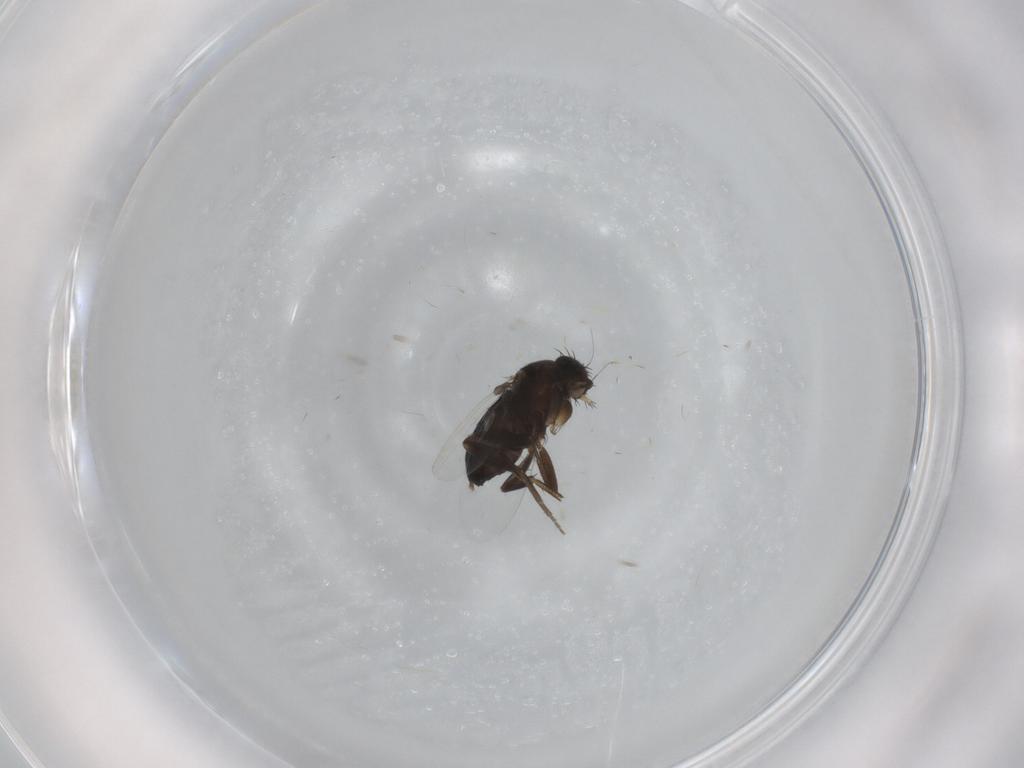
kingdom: Animalia
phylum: Arthropoda
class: Insecta
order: Diptera
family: Phoridae
